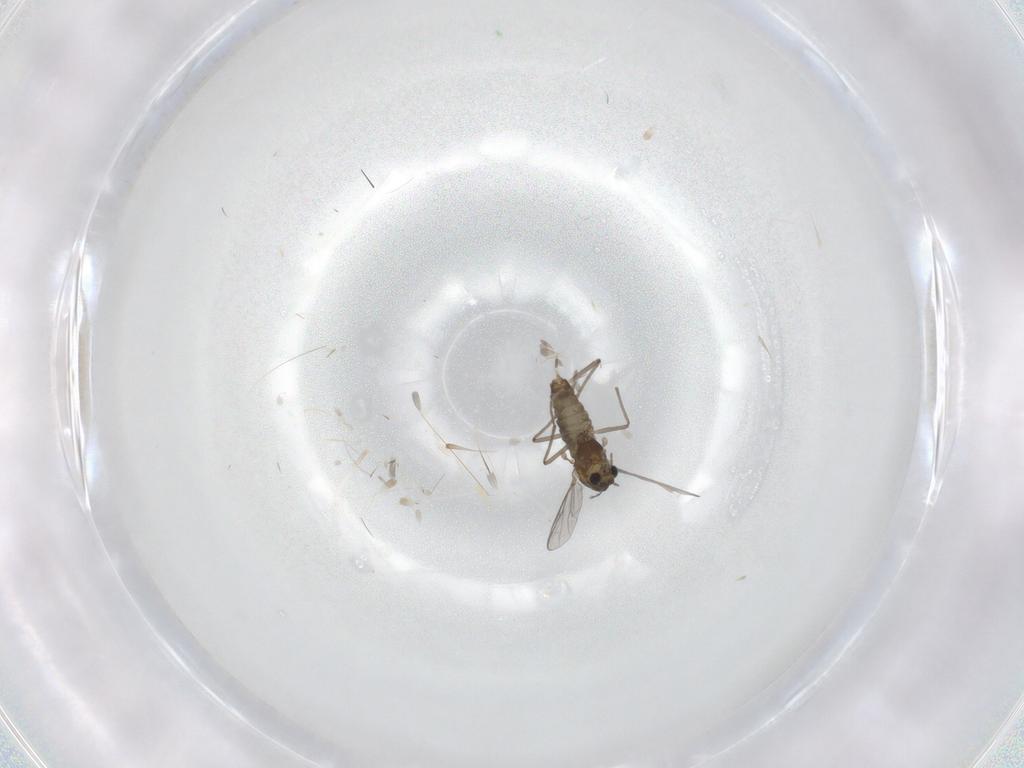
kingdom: Animalia
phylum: Arthropoda
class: Insecta
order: Diptera
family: Chironomidae
